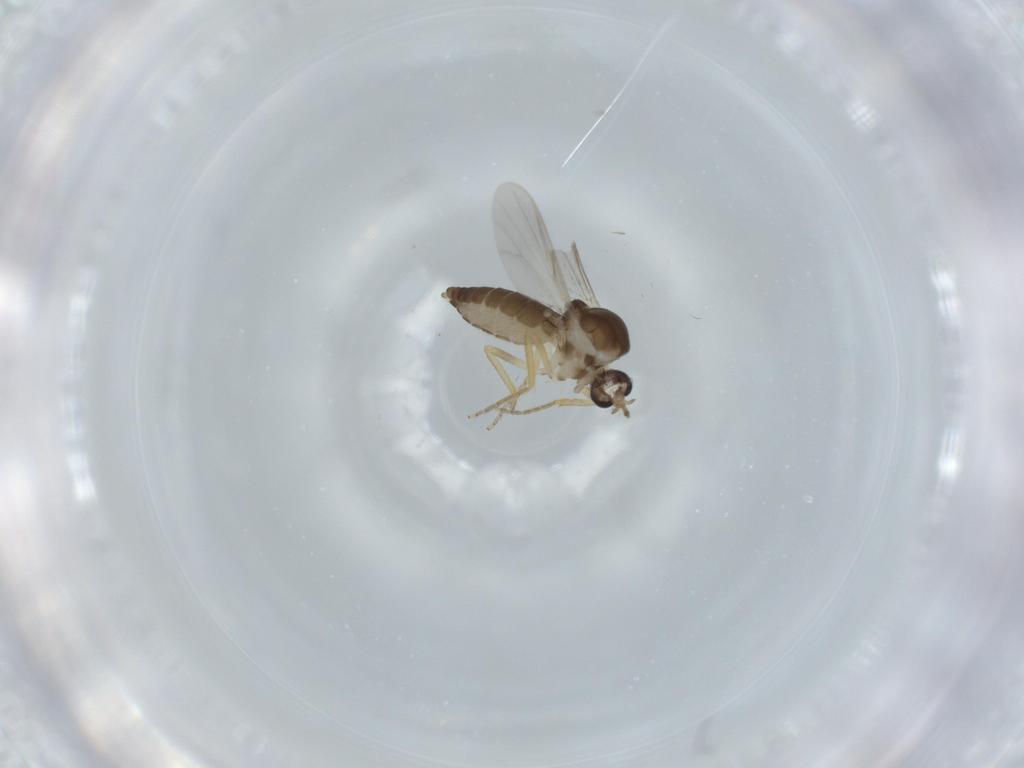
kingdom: Animalia
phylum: Arthropoda
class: Insecta
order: Diptera
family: Ceratopogonidae
